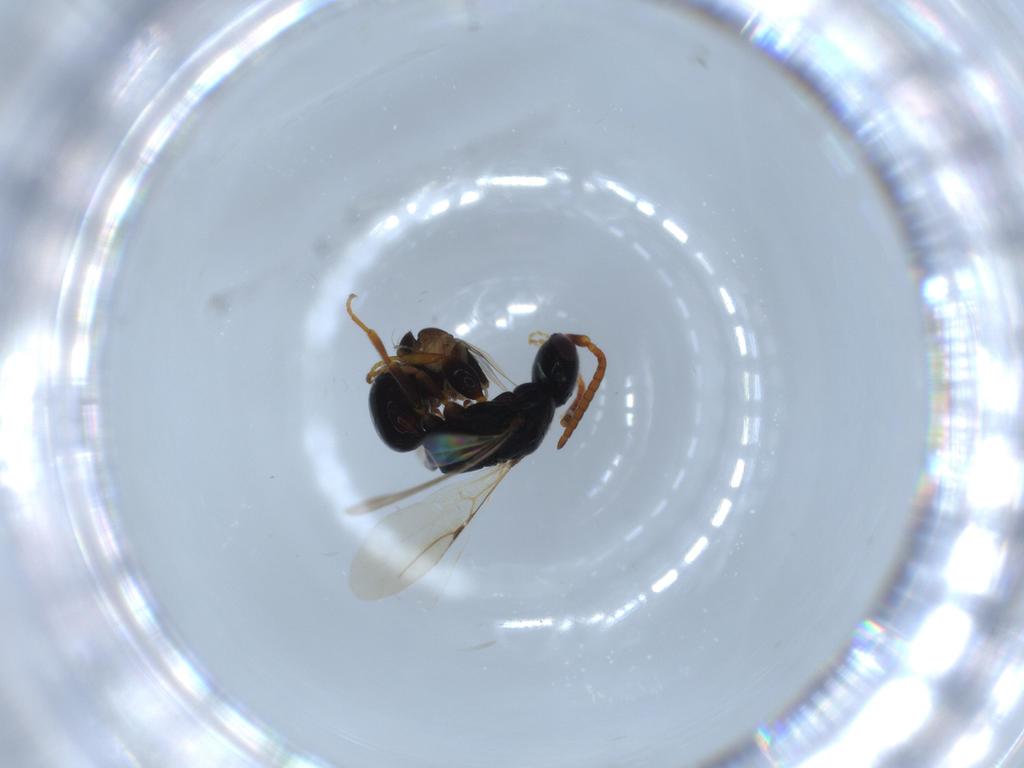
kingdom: Animalia
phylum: Arthropoda
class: Insecta
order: Hymenoptera
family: Bethylidae
